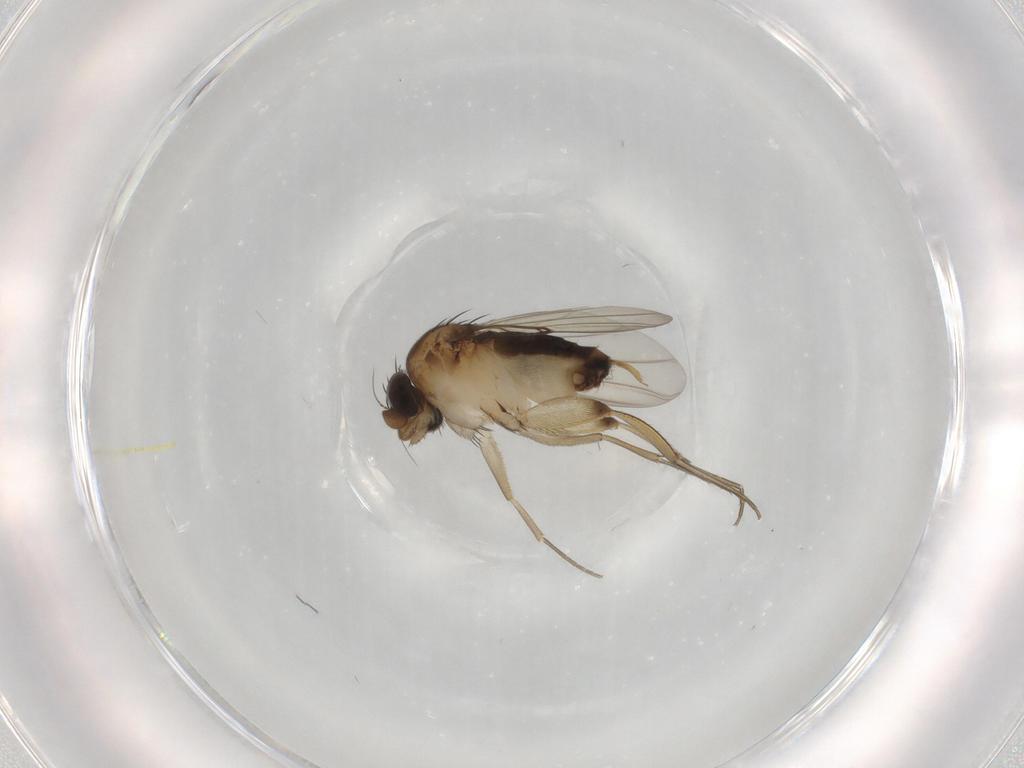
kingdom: Animalia
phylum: Arthropoda
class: Insecta
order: Diptera
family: Phoridae
